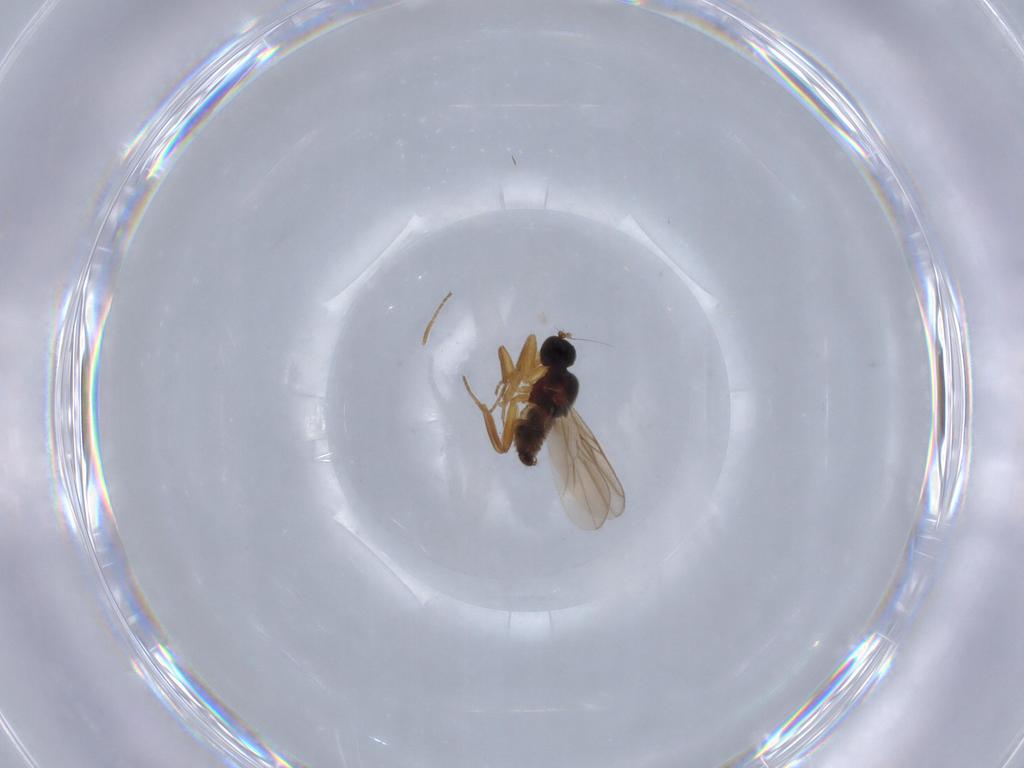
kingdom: Animalia
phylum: Arthropoda
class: Insecta
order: Diptera
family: Hybotidae
